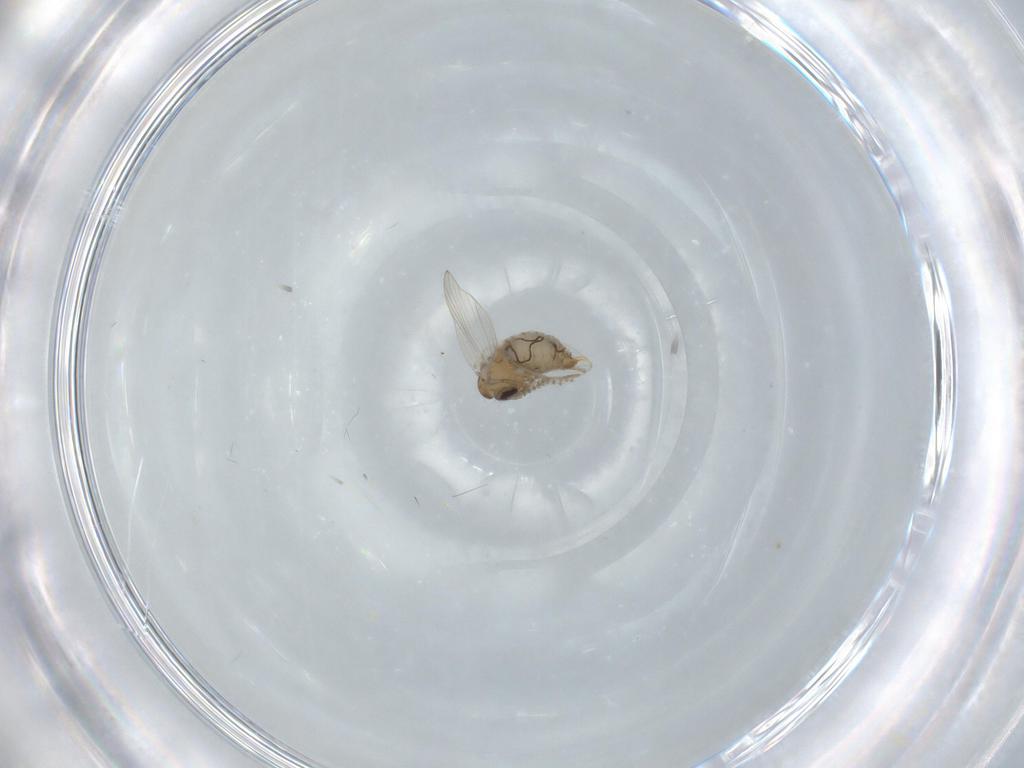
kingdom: Animalia
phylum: Arthropoda
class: Insecta
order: Diptera
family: Psychodidae
